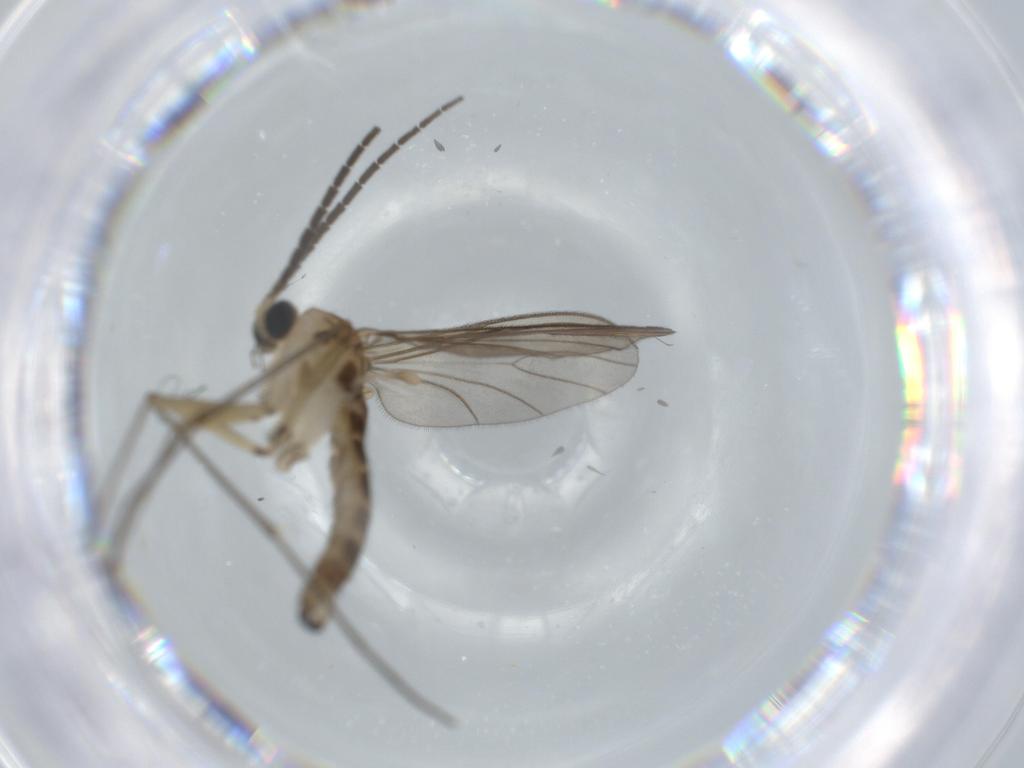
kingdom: Animalia
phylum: Arthropoda
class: Insecta
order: Diptera
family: Sciaridae
